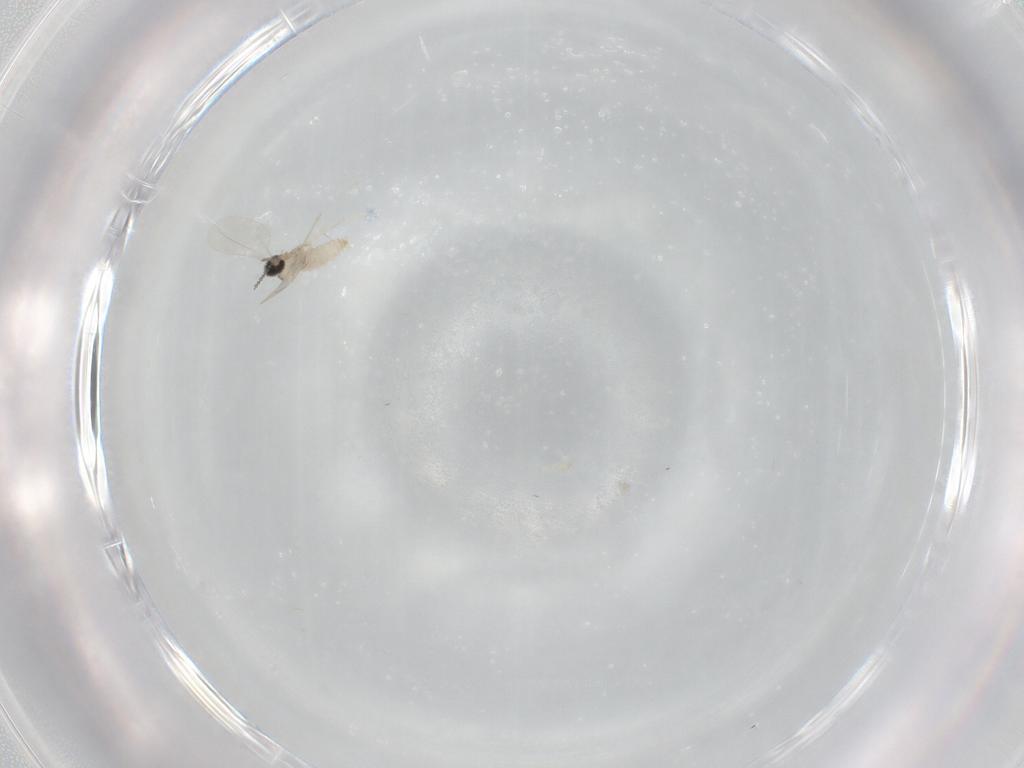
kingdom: Animalia
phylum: Arthropoda
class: Insecta
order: Diptera
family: Cecidomyiidae
